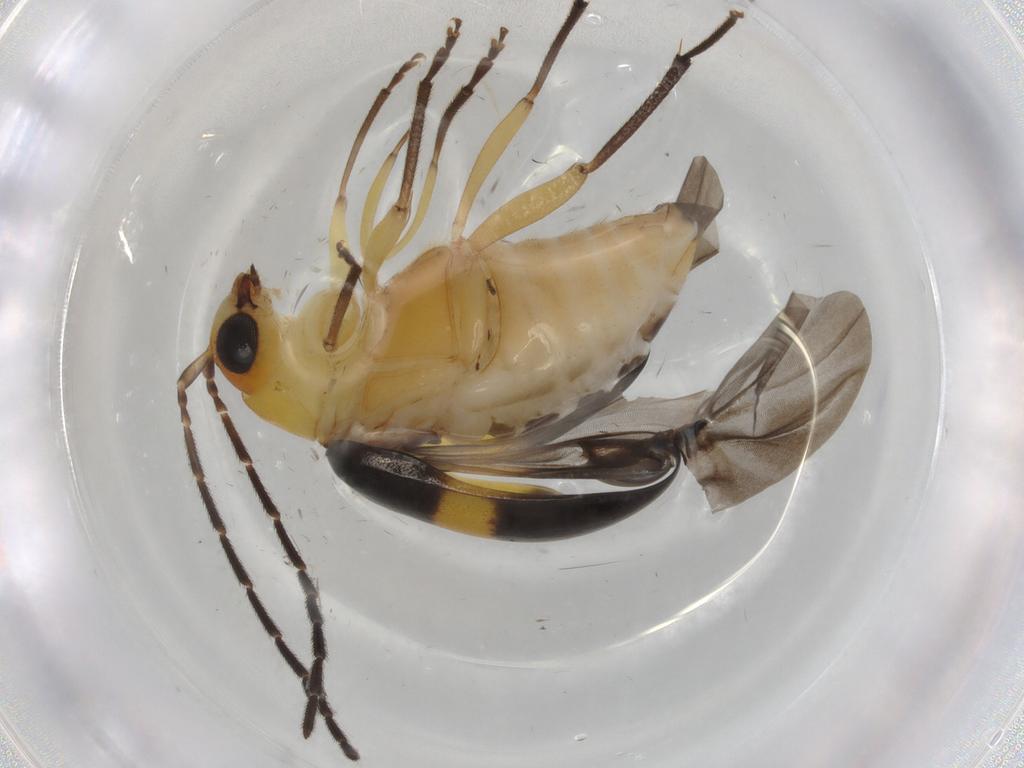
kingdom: Animalia
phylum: Arthropoda
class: Insecta
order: Coleoptera
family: Chrysomelidae
